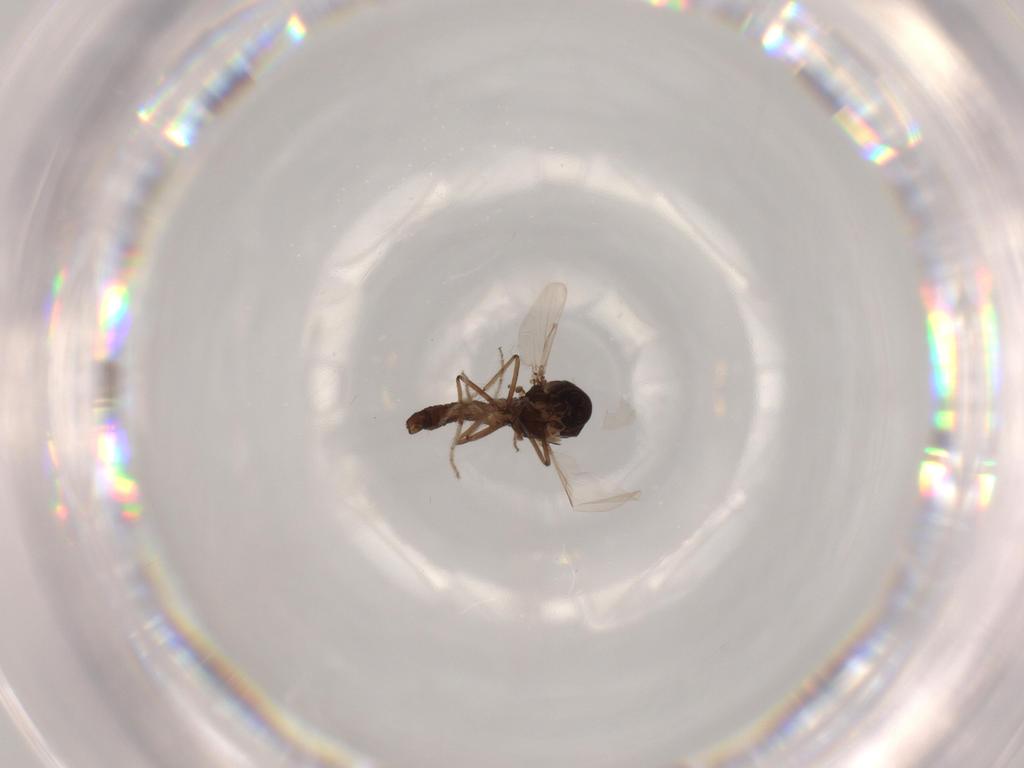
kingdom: Animalia
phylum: Arthropoda
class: Insecta
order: Diptera
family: Chironomidae
